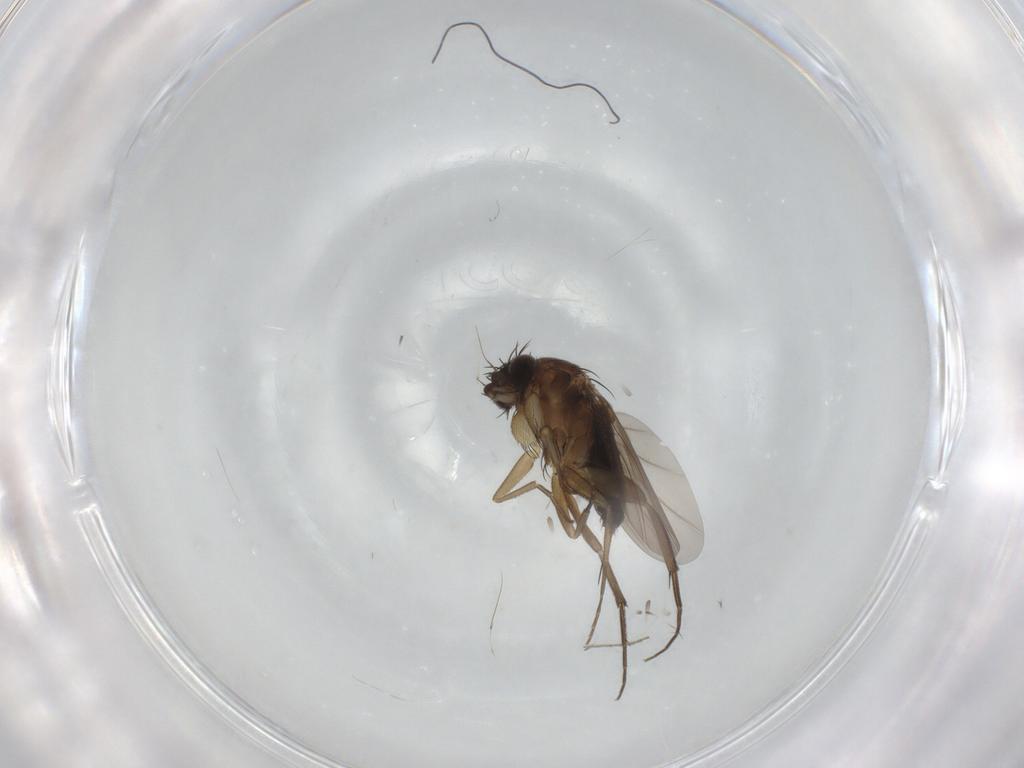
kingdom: Animalia
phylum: Arthropoda
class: Insecta
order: Diptera
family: Phoridae
